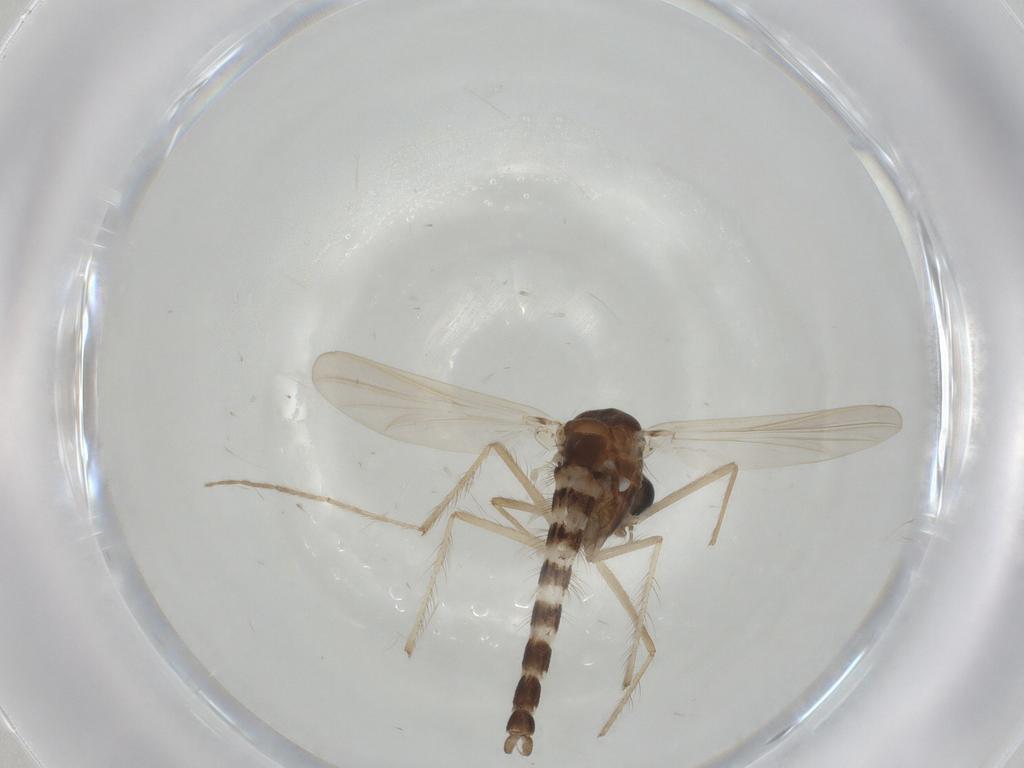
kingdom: Animalia
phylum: Arthropoda
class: Insecta
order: Diptera
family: Chironomidae
